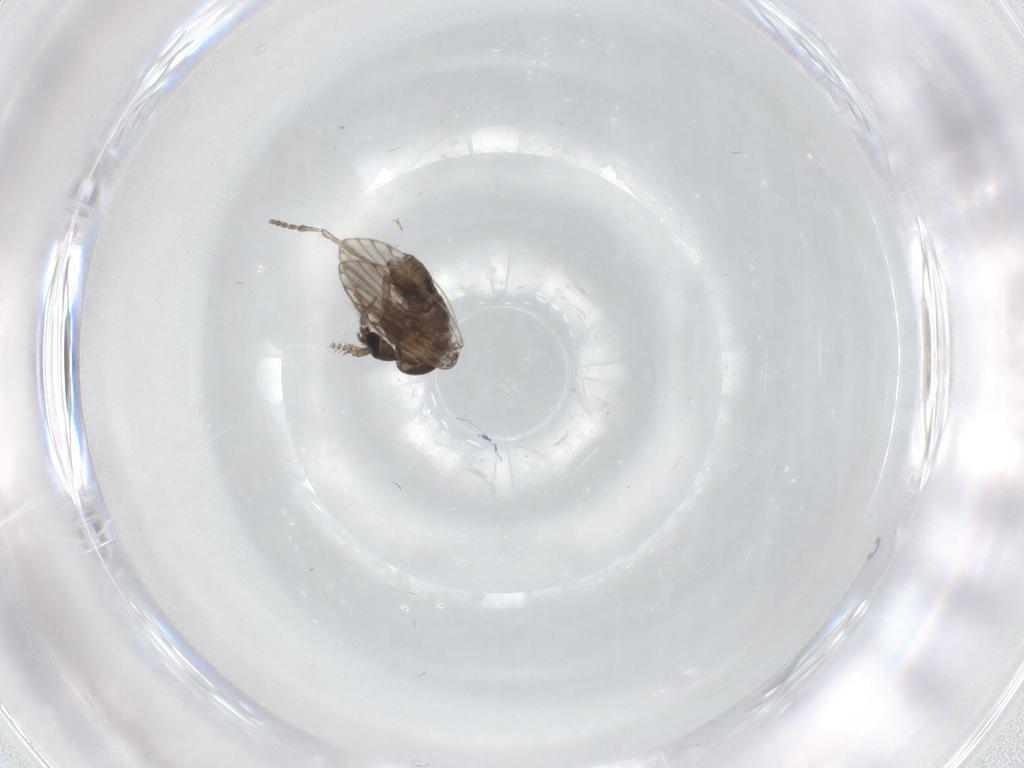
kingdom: Animalia
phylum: Arthropoda
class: Insecta
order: Diptera
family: Psychodidae
